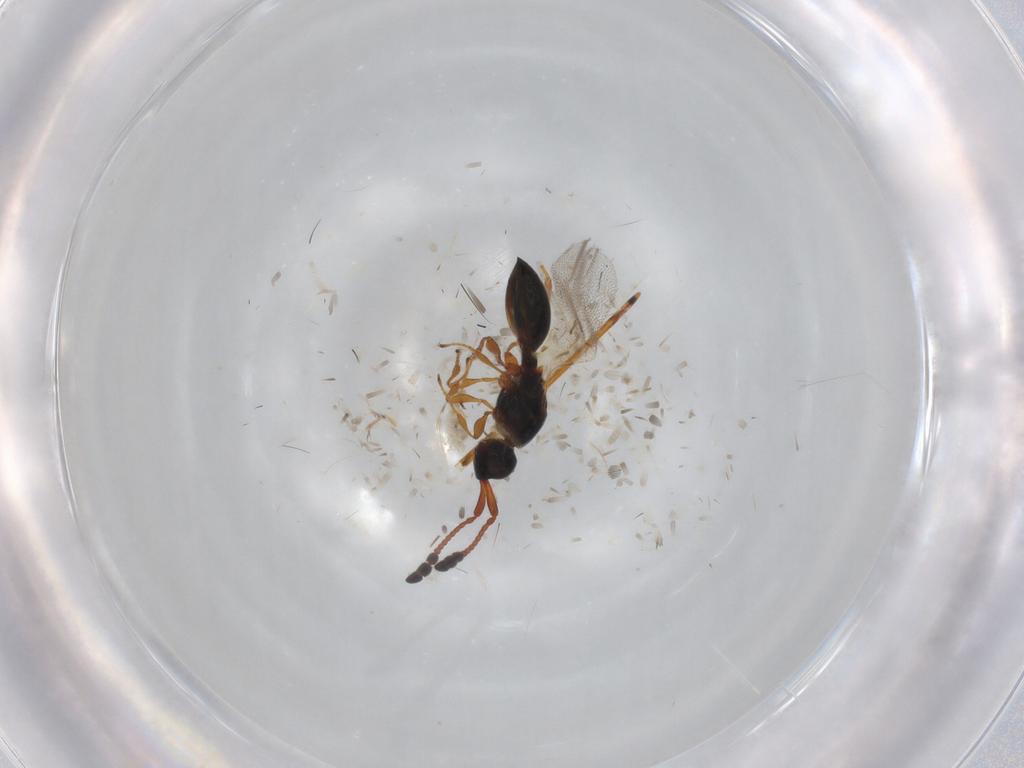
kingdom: Animalia
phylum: Arthropoda
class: Insecta
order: Hymenoptera
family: Diapriidae
